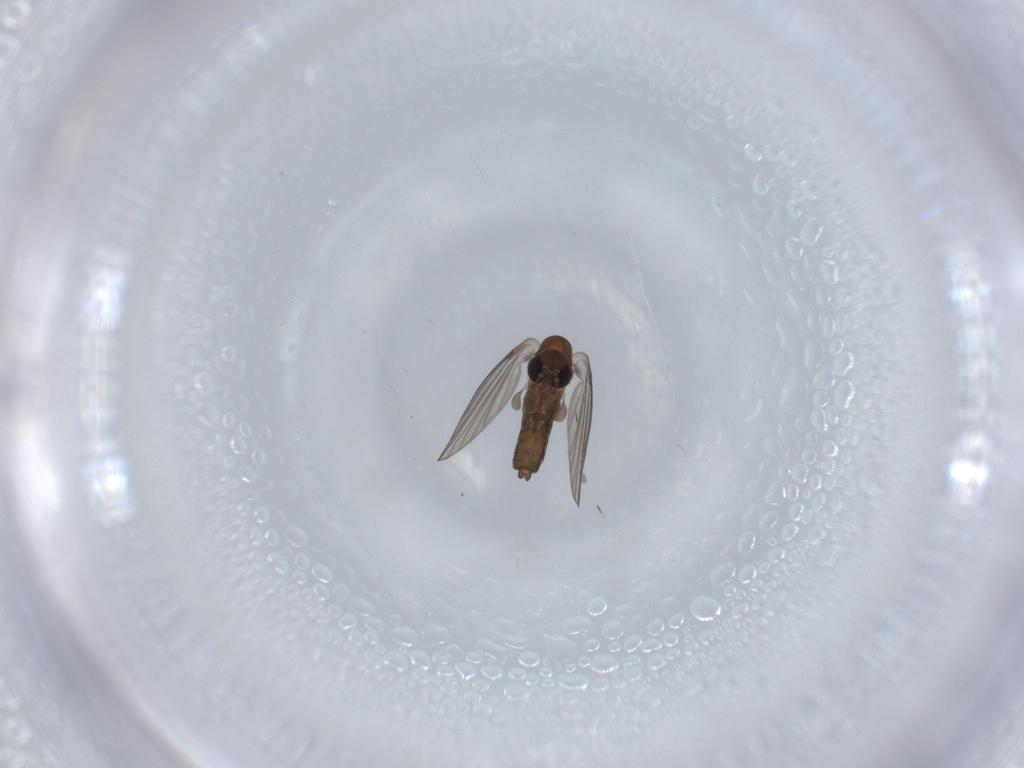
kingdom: Animalia
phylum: Arthropoda
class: Insecta
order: Diptera
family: Psychodidae
